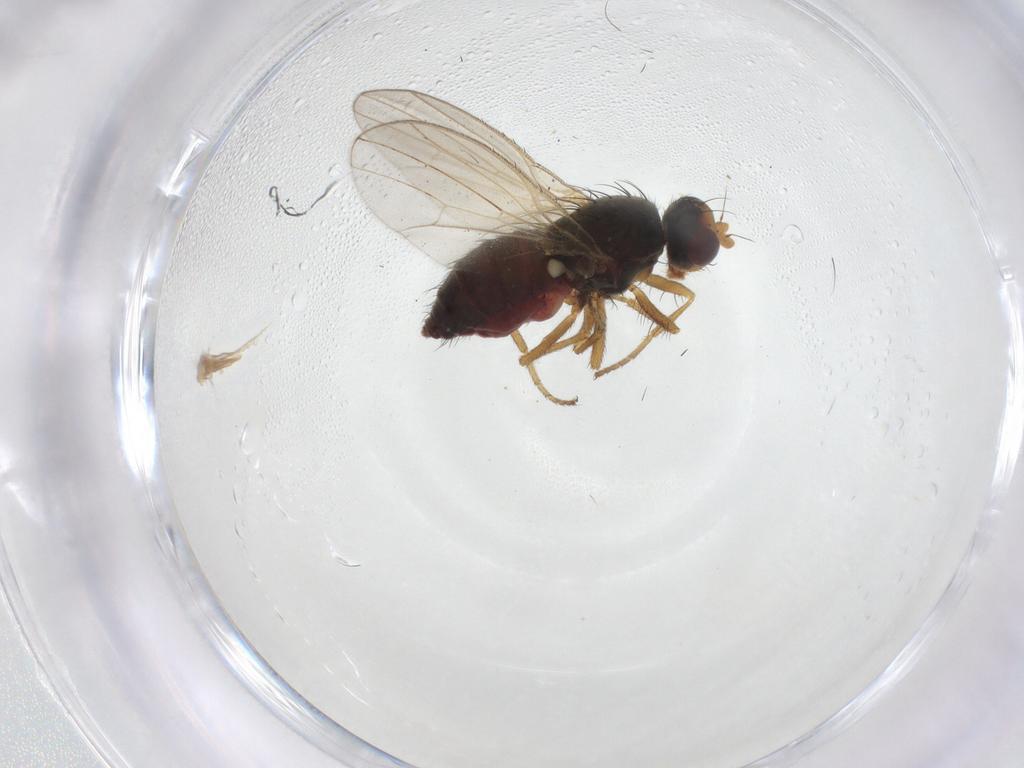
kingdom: Animalia
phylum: Arthropoda
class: Insecta
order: Diptera
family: Heleomyzidae
